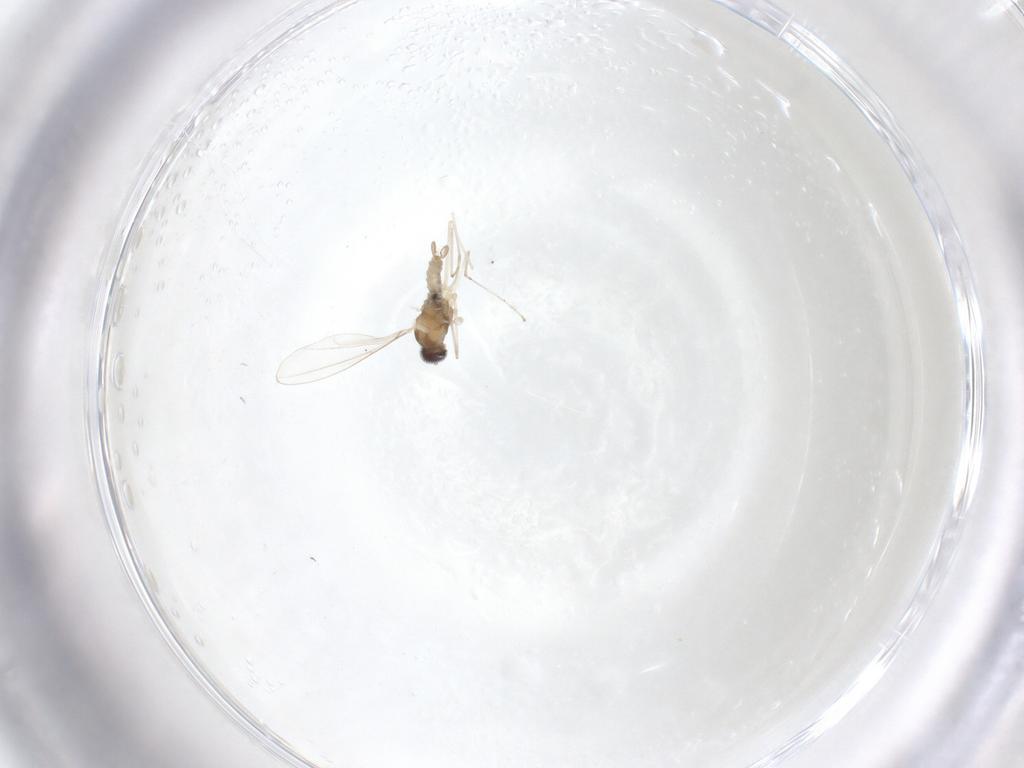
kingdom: Animalia
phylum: Arthropoda
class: Insecta
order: Diptera
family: Cecidomyiidae
